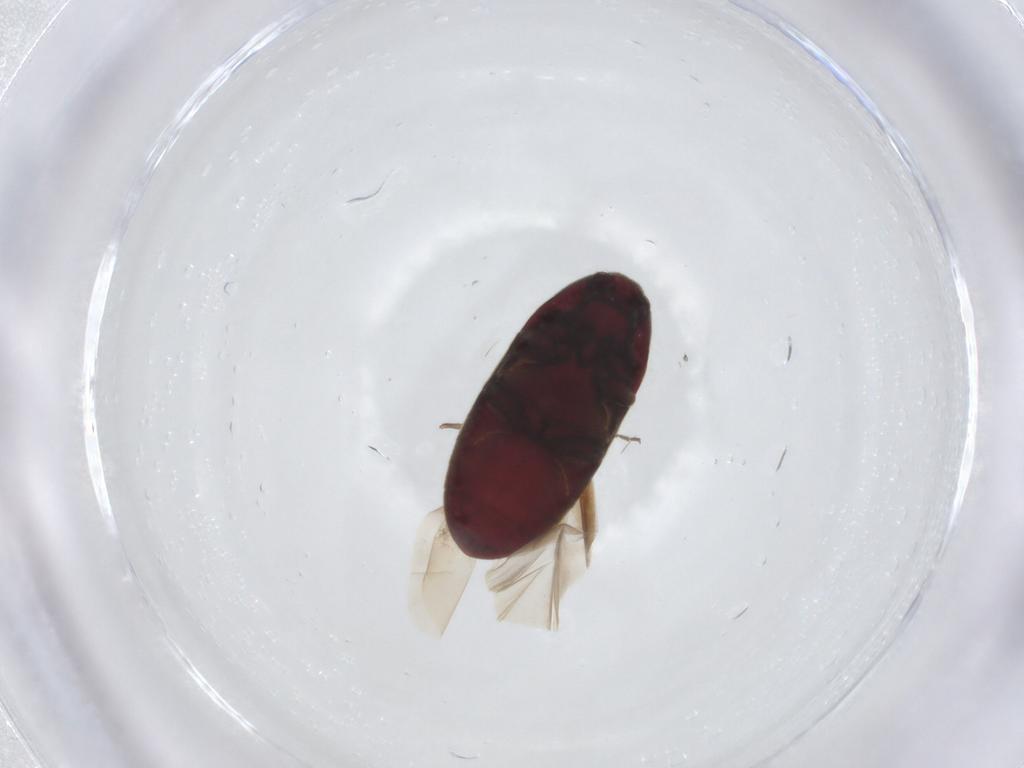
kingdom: Animalia
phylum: Arthropoda
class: Insecta
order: Coleoptera
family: Throscidae
